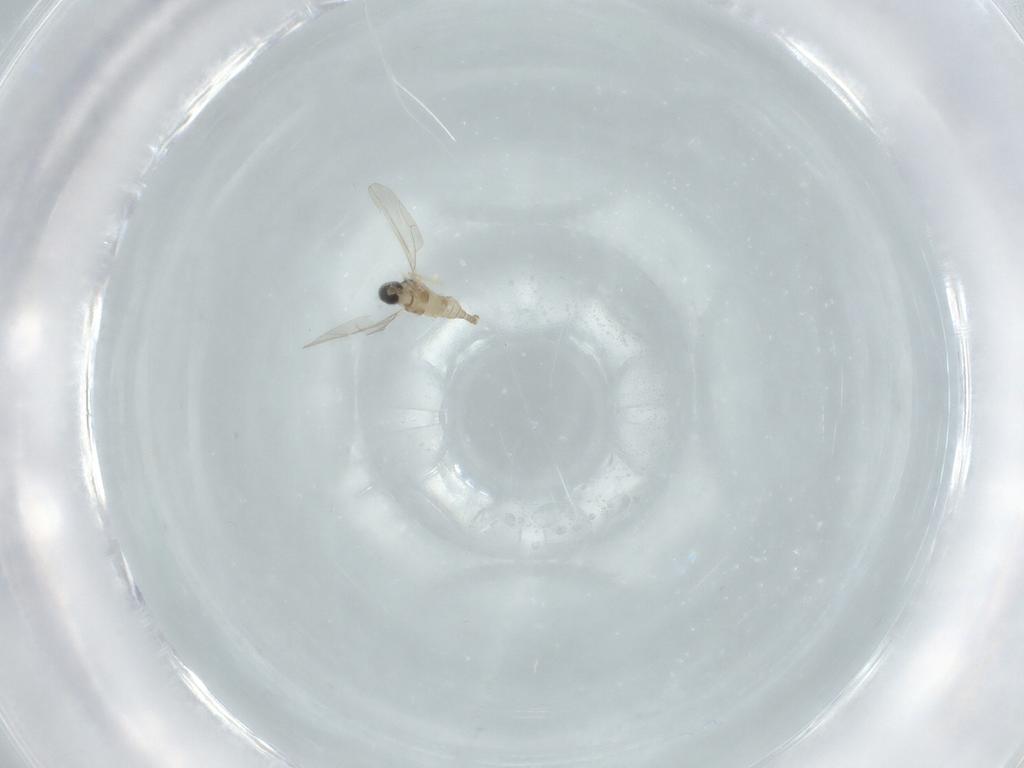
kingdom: Animalia
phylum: Arthropoda
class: Insecta
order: Diptera
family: Cecidomyiidae
